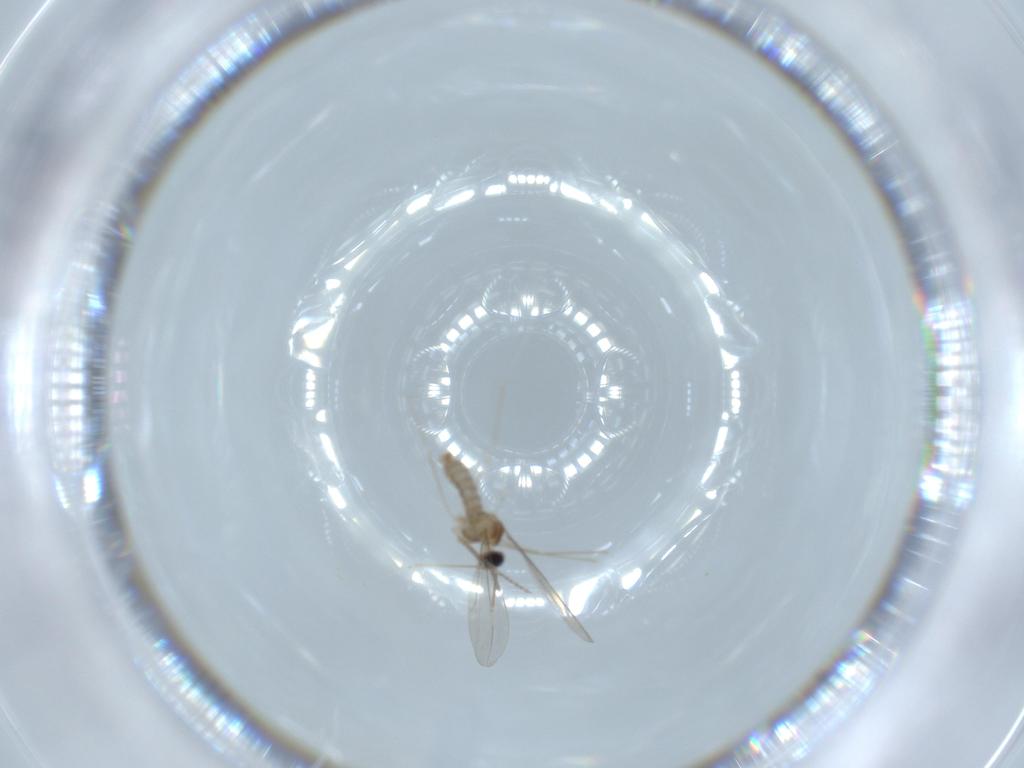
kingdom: Animalia
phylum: Arthropoda
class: Insecta
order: Diptera
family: Cecidomyiidae
